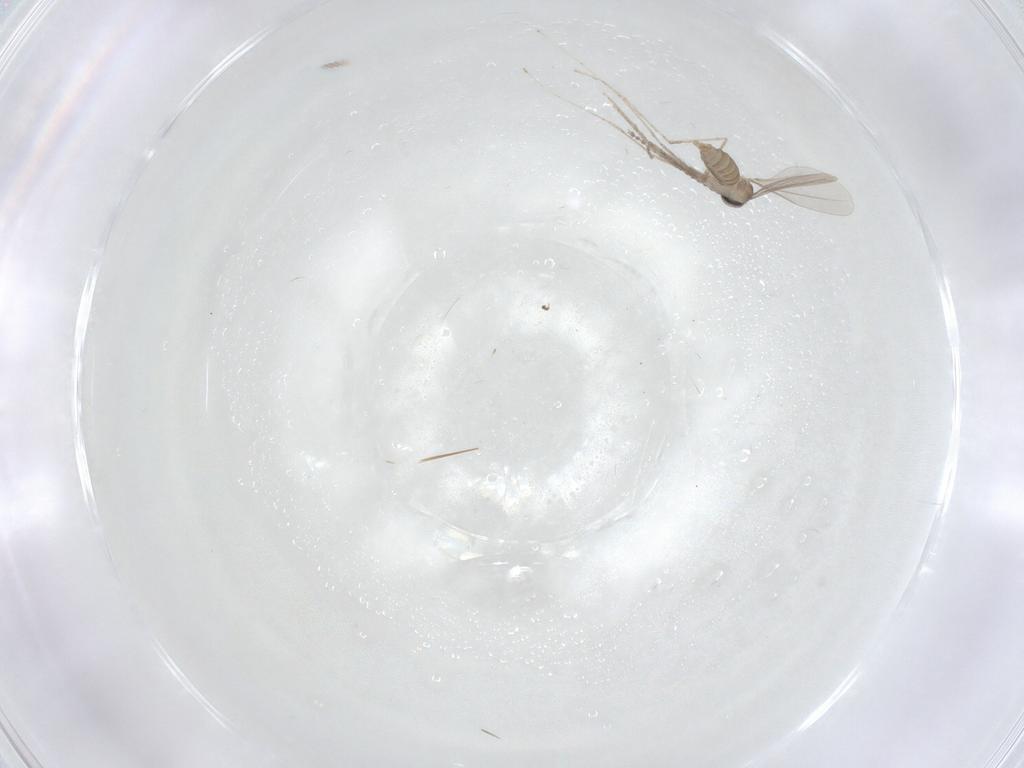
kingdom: Animalia
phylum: Arthropoda
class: Insecta
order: Diptera
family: Cecidomyiidae
